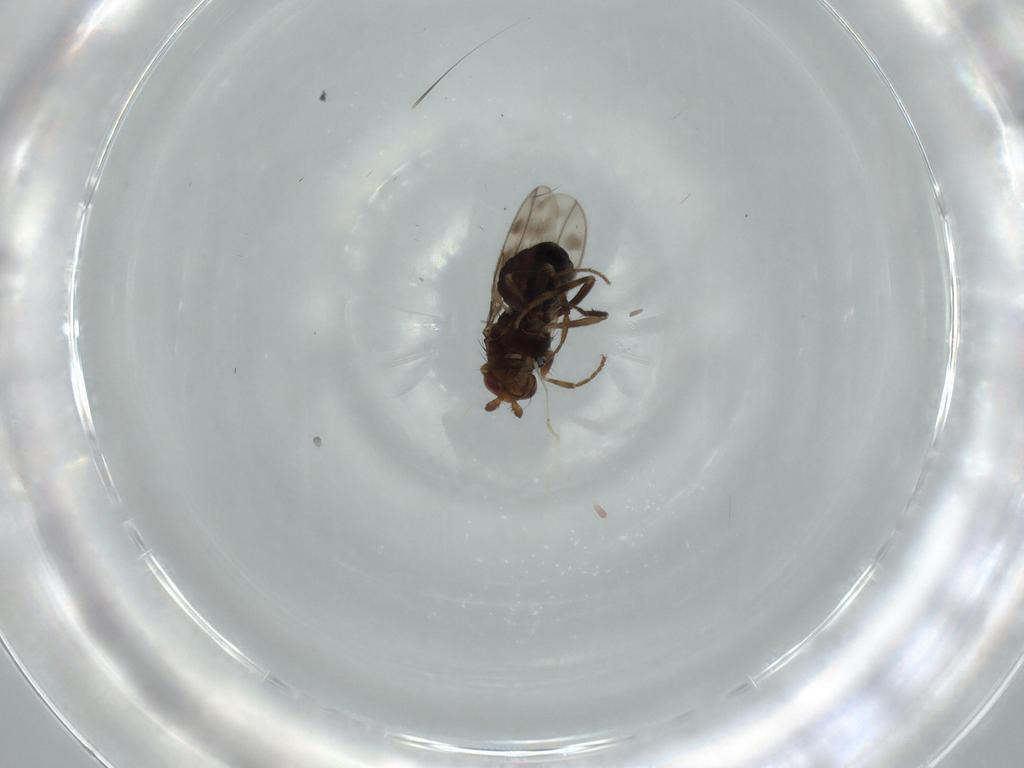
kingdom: Animalia
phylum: Arthropoda
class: Insecta
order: Diptera
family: Sphaeroceridae
